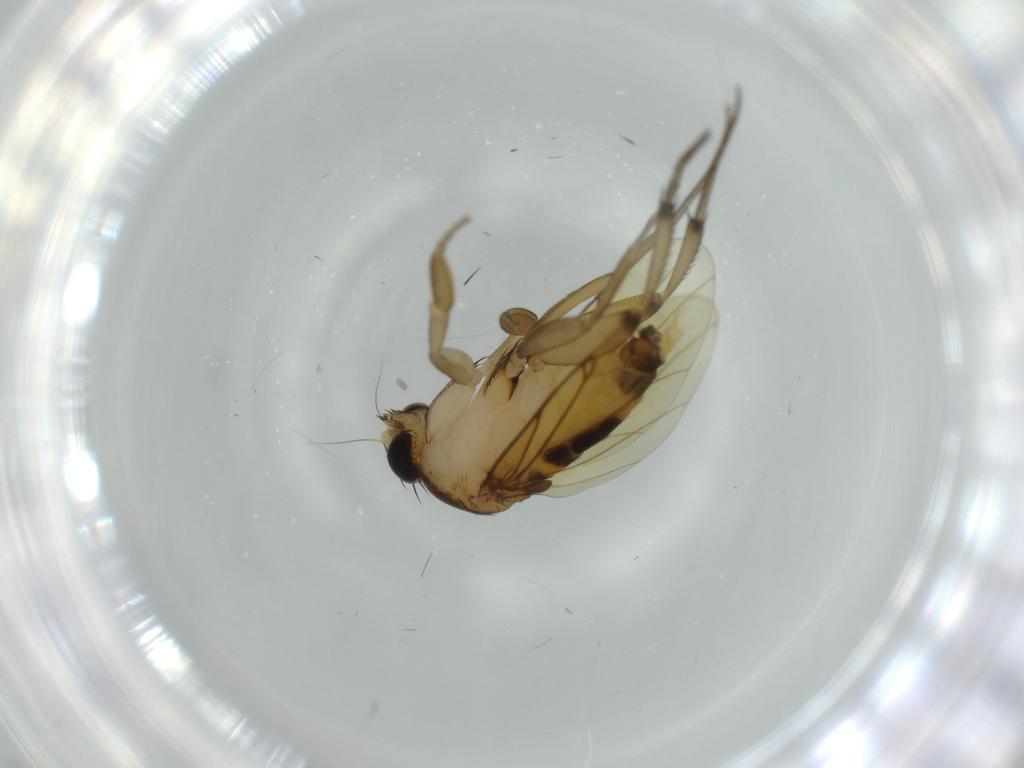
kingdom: Animalia
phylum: Arthropoda
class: Insecta
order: Diptera
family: Phoridae
